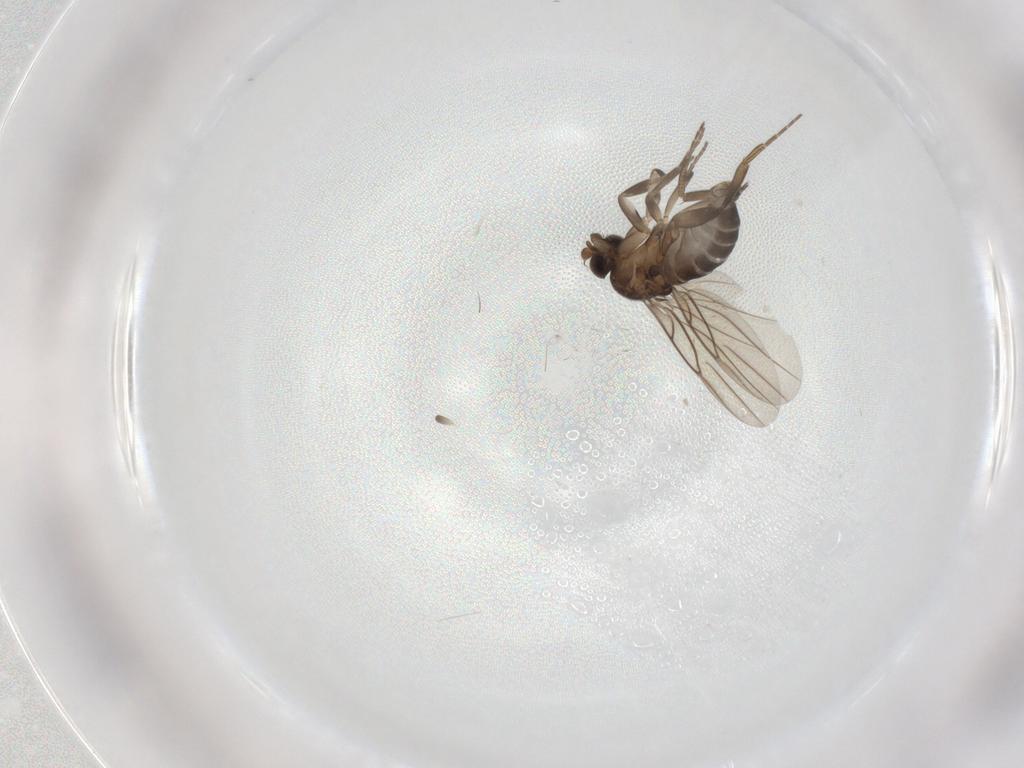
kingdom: Animalia
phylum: Arthropoda
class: Insecta
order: Diptera
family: Phoridae
